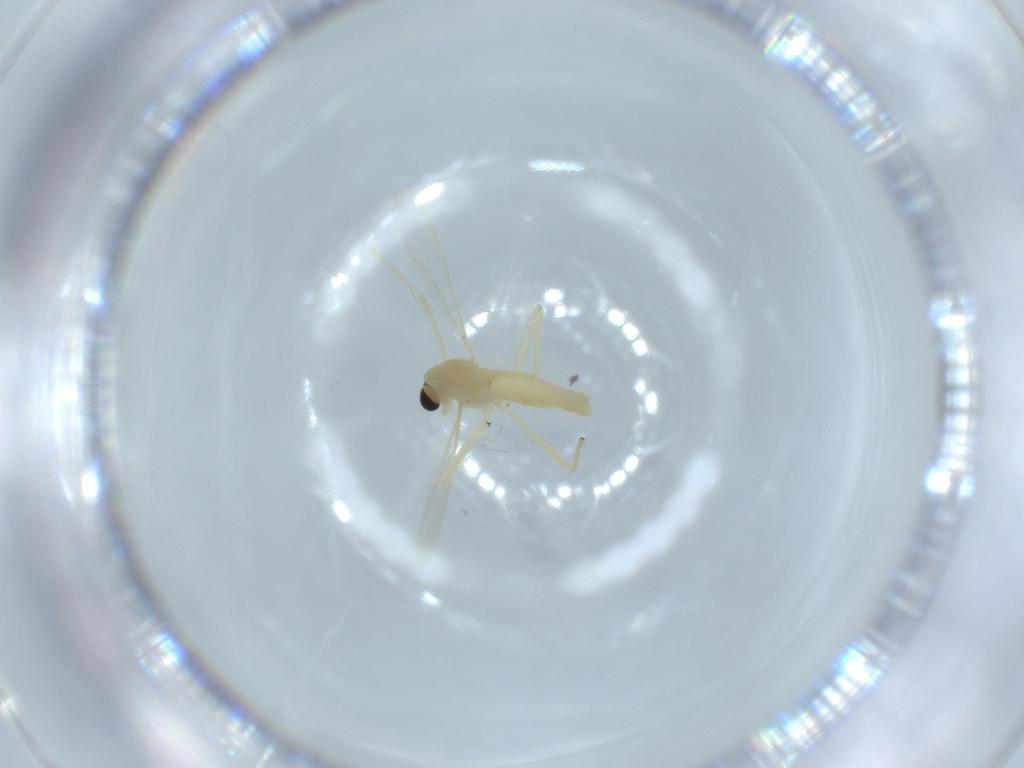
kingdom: Animalia
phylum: Arthropoda
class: Insecta
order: Diptera
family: Chironomidae
